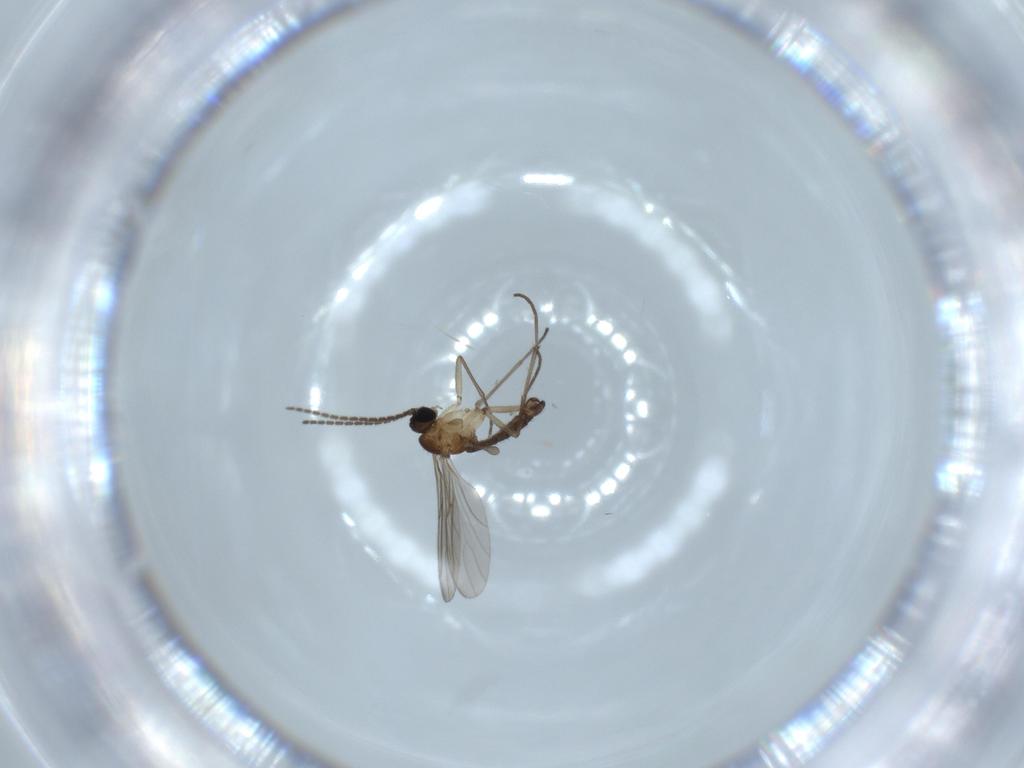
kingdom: Animalia
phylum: Arthropoda
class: Insecta
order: Diptera
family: Sciaridae
